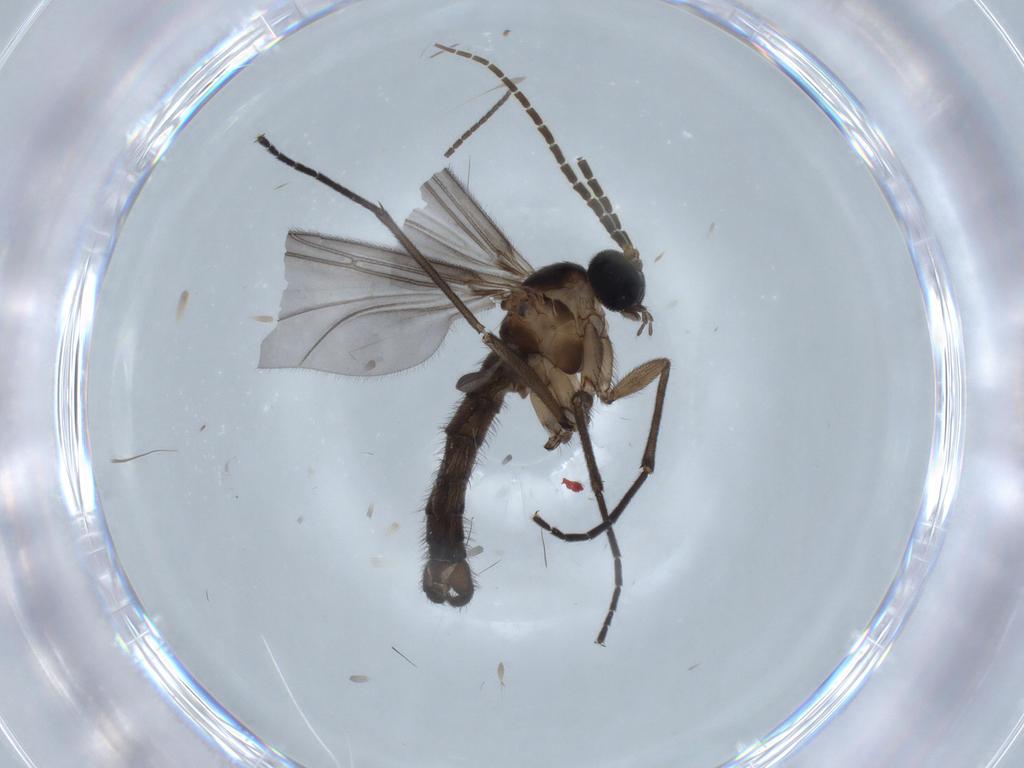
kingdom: Animalia
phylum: Arthropoda
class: Insecta
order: Diptera
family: Sciaridae
